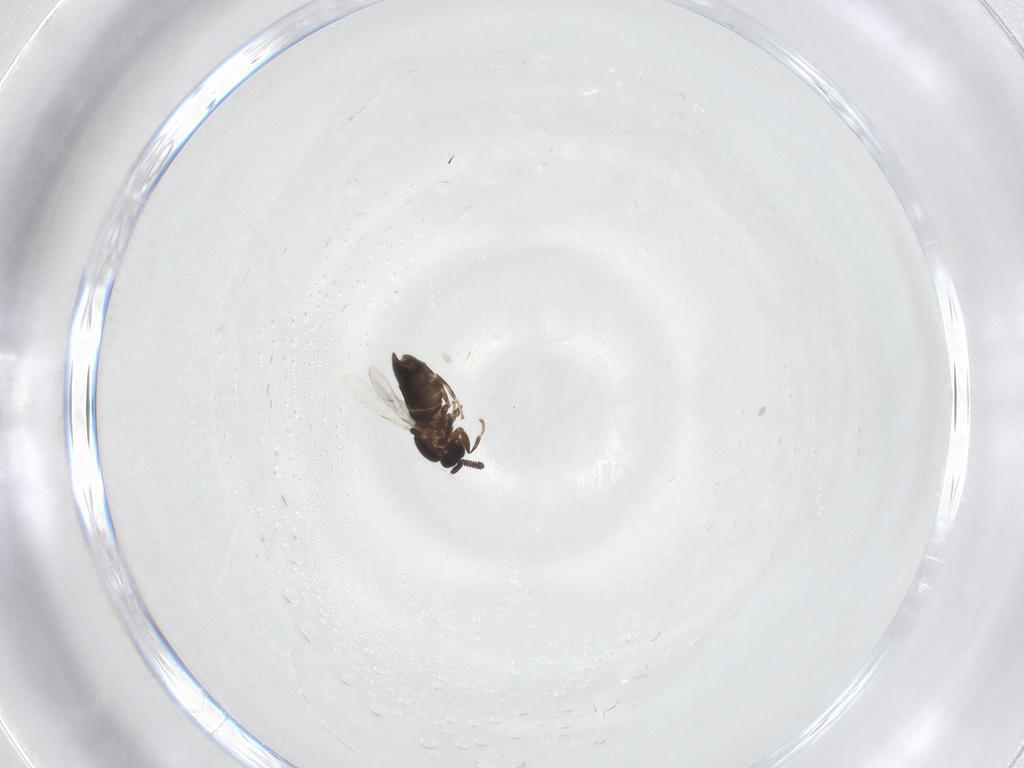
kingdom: Animalia
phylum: Arthropoda
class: Insecta
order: Diptera
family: Scatopsidae
